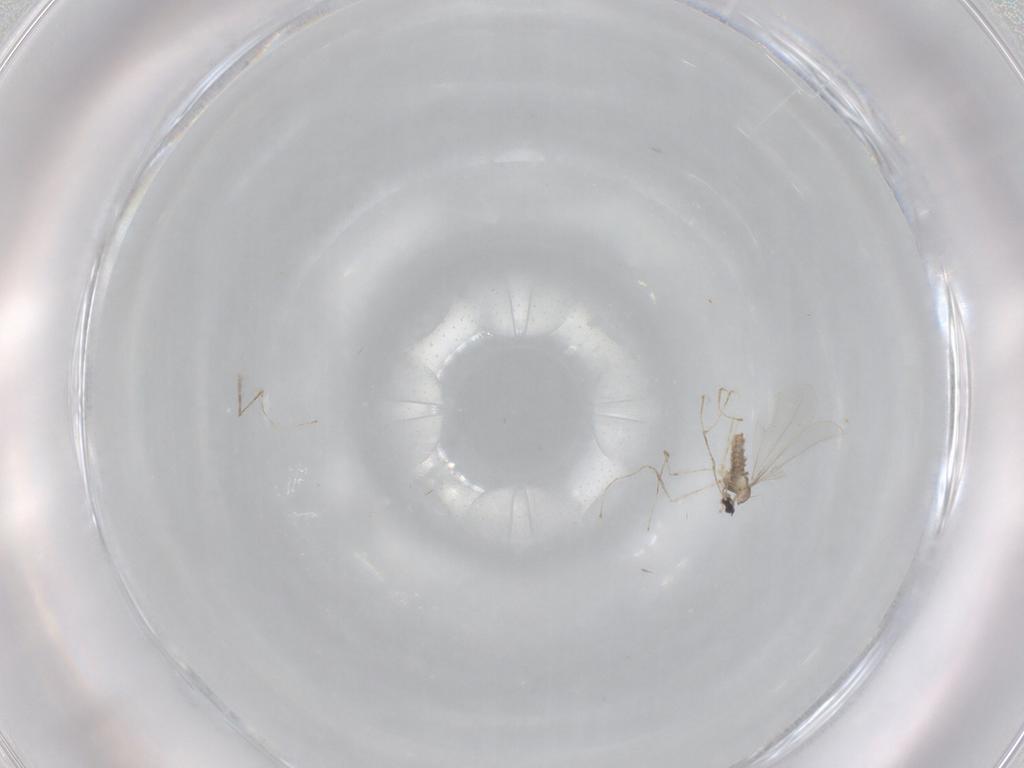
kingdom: Animalia
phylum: Arthropoda
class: Insecta
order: Diptera
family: Cecidomyiidae
